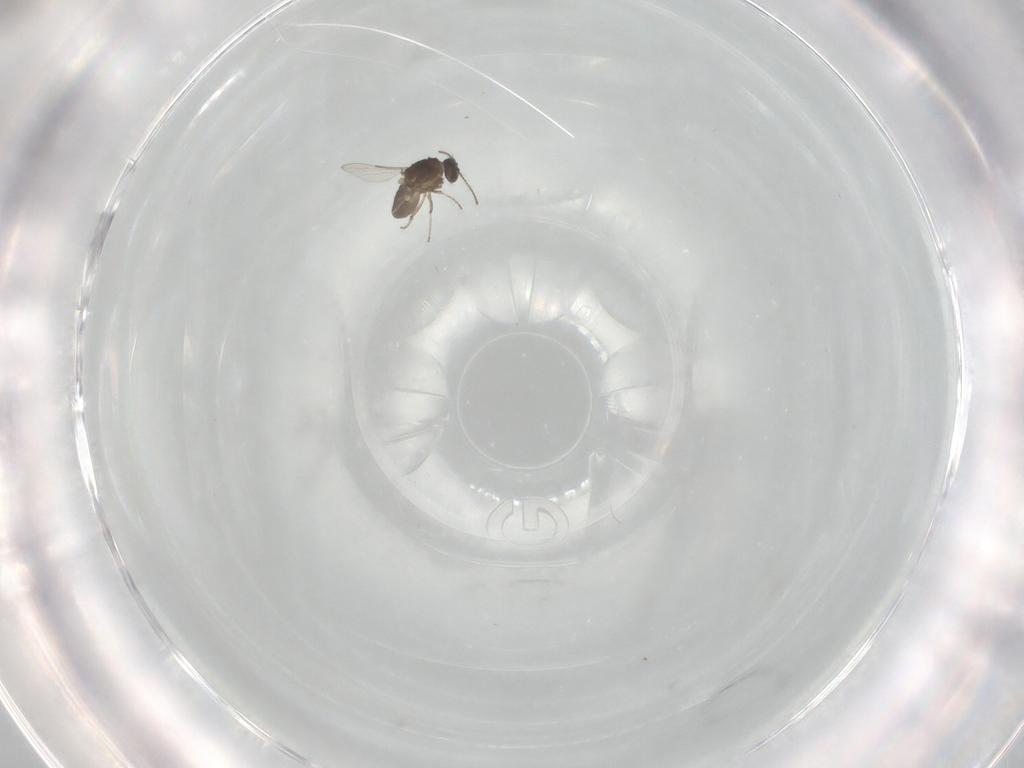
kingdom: Animalia
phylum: Arthropoda
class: Insecta
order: Diptera
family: Ceratopogonidae
